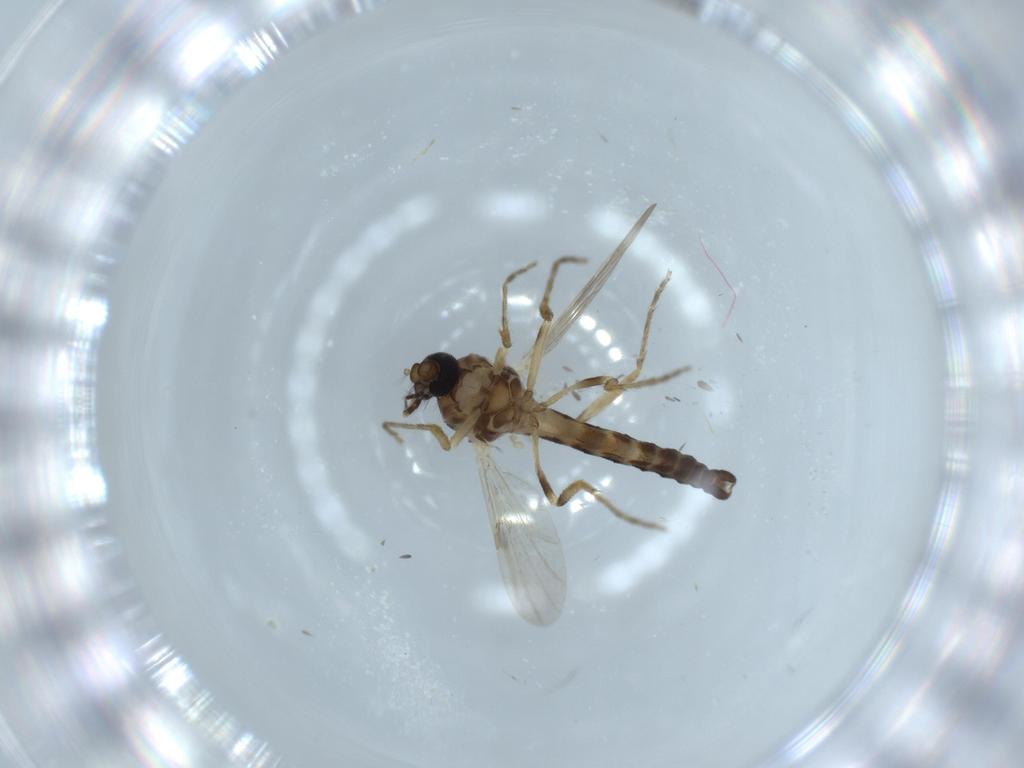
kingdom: Animalia
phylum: Arthropoda
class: Insecta
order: Diptera
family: Ceratopogonidae
